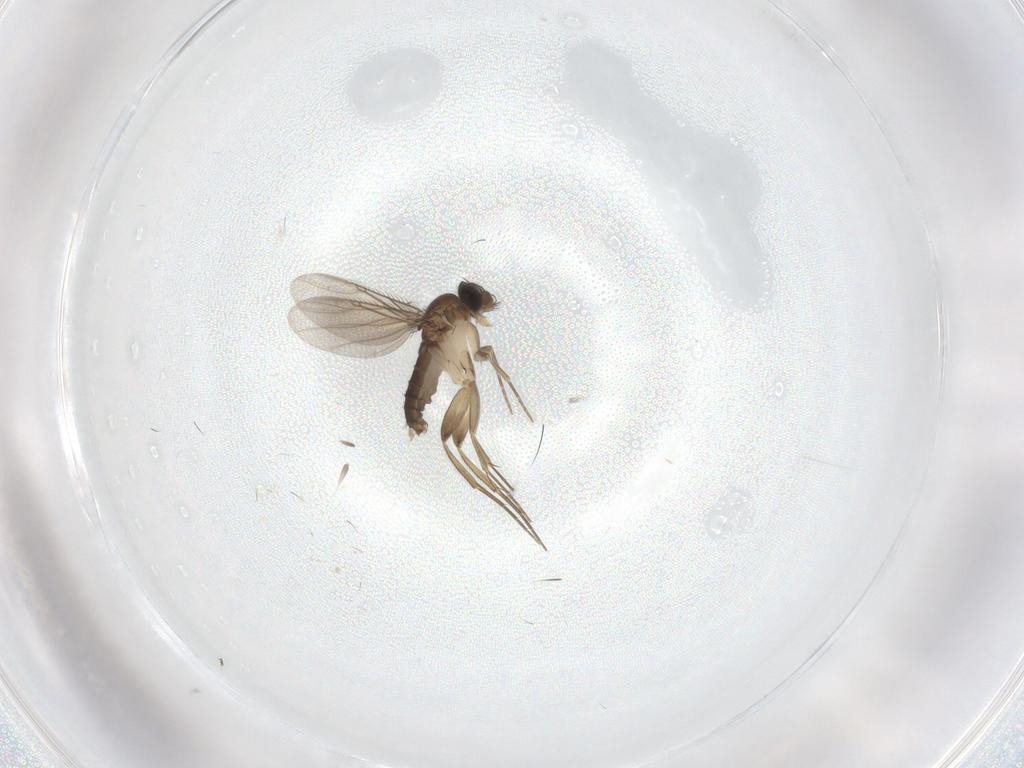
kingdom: Animalia
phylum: Arthropoda
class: Insecta
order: Diptera
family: Phoridae
